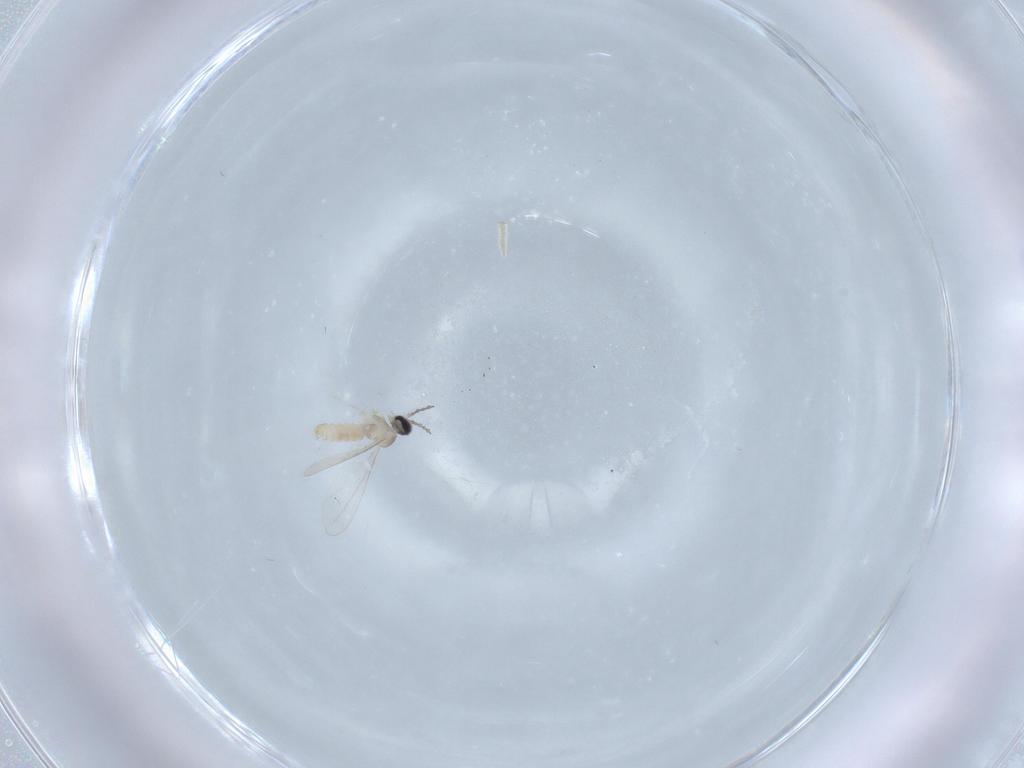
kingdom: Animalia
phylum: Arthropoda
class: Insecta
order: Diptera
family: Cecidomyiidae
